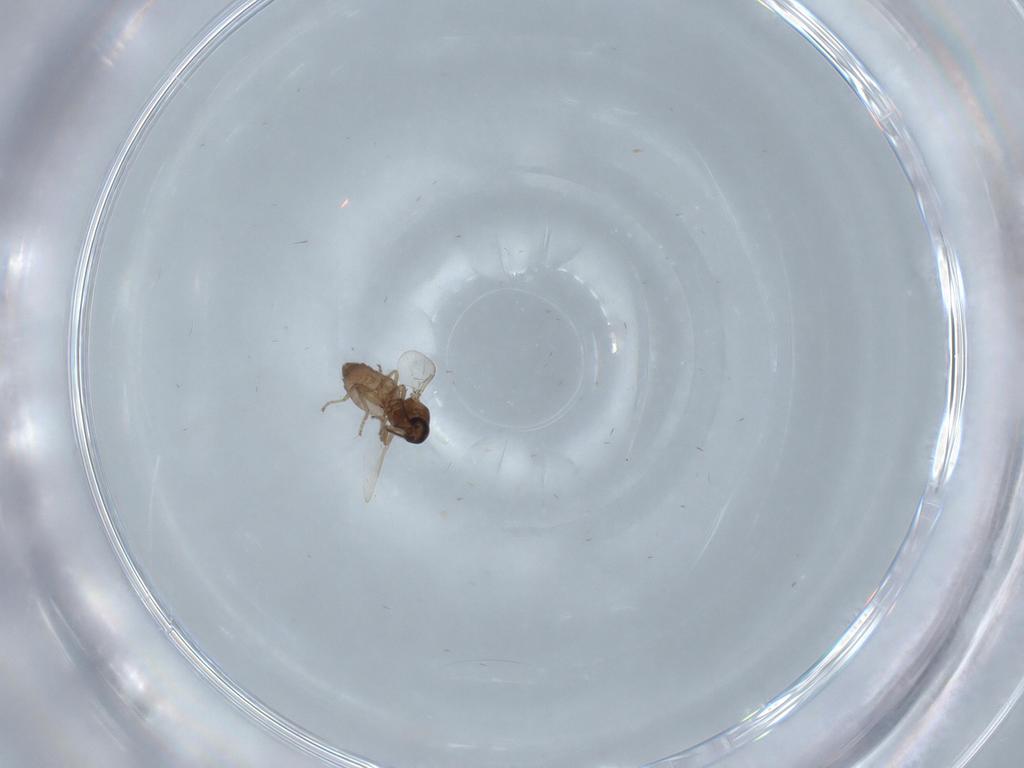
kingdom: Animalia
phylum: Arthropoda
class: Insecta
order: Diptera
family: Ceratopogonidae
